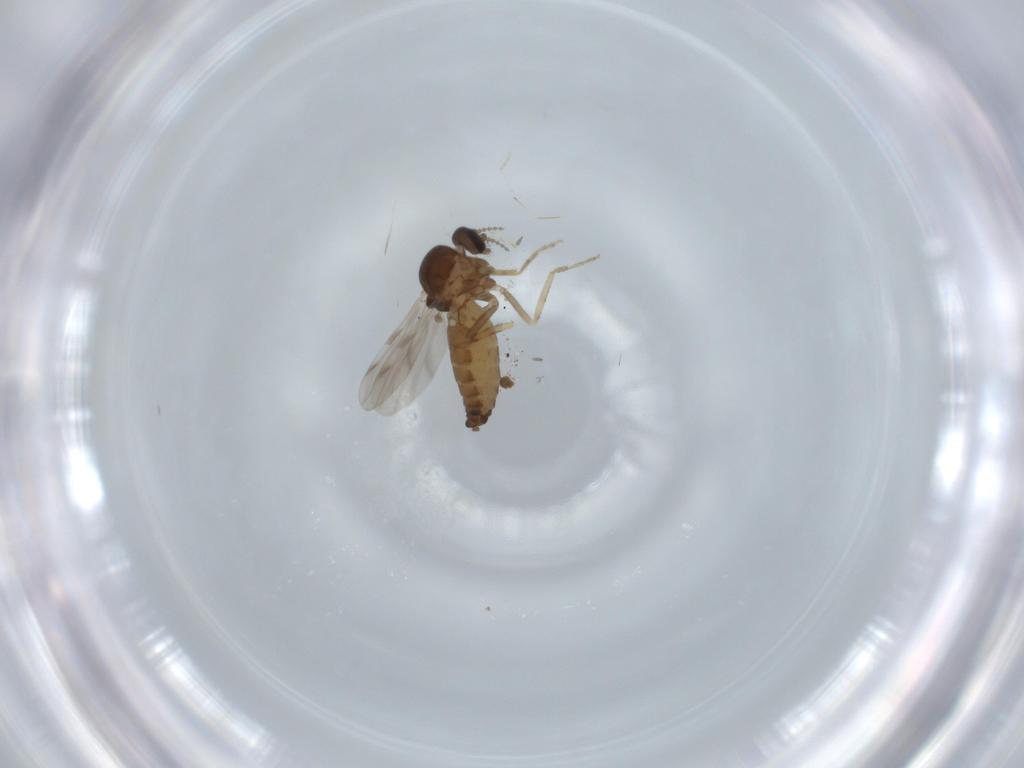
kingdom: Animalia
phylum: Arthropoda
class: Insecta
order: Diptera
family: Ceratopogonidae
